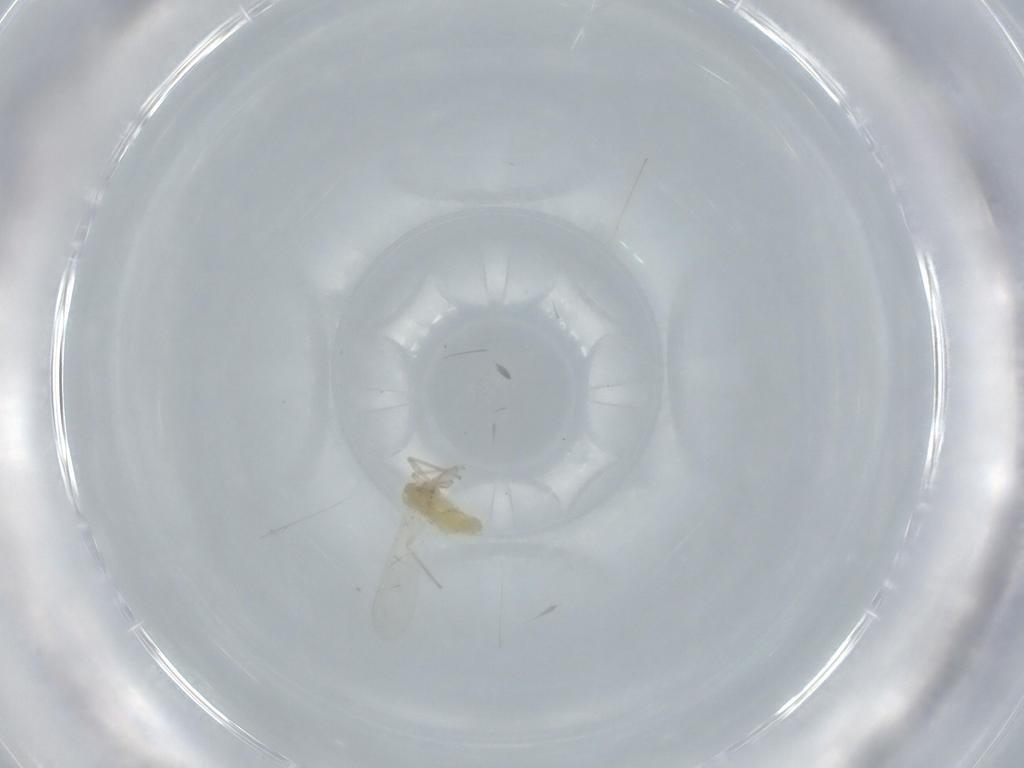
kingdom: Animalia
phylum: Arthropoda
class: Insecta
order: Diptera
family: Chironomidae
